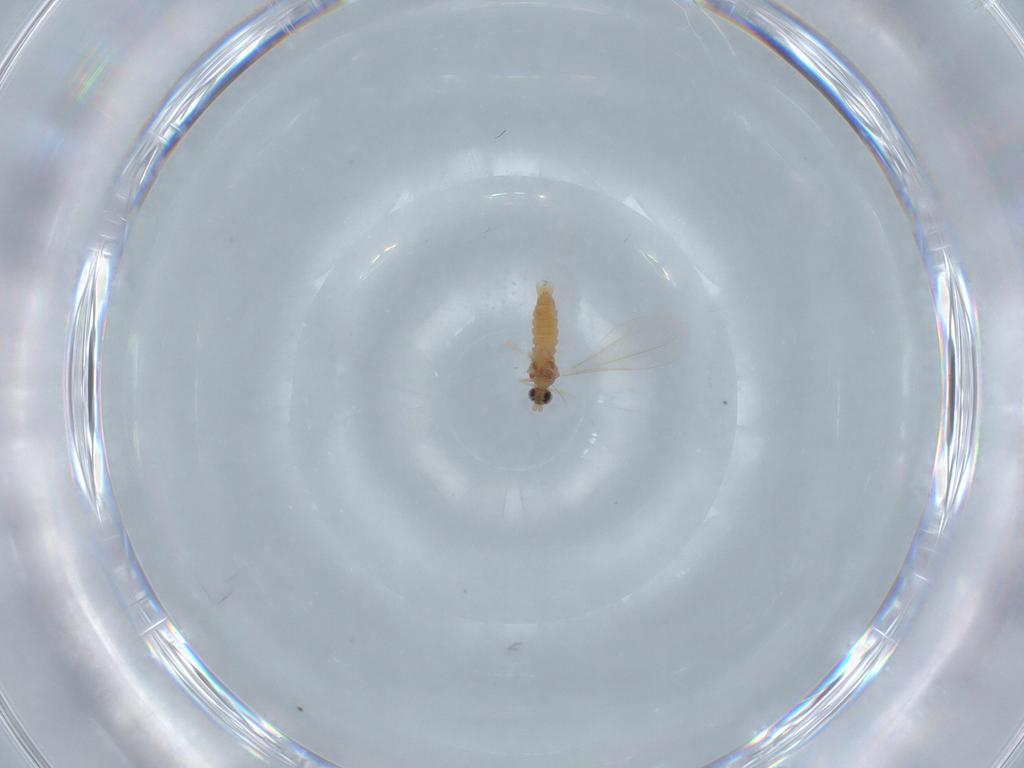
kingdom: Animalia
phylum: Arthropoda
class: Insecta
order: Diptera
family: Cecidomyiidae
